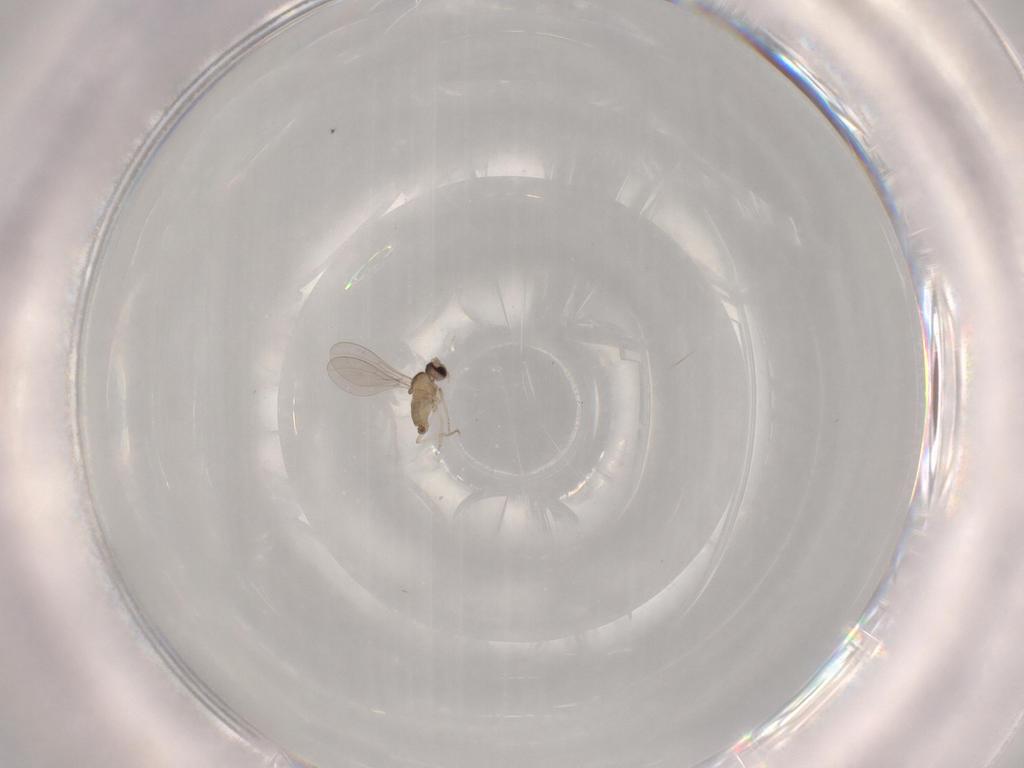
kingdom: Animalia
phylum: Arthropoda
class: Insecta
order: Diptera
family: Cecidomyiidae
